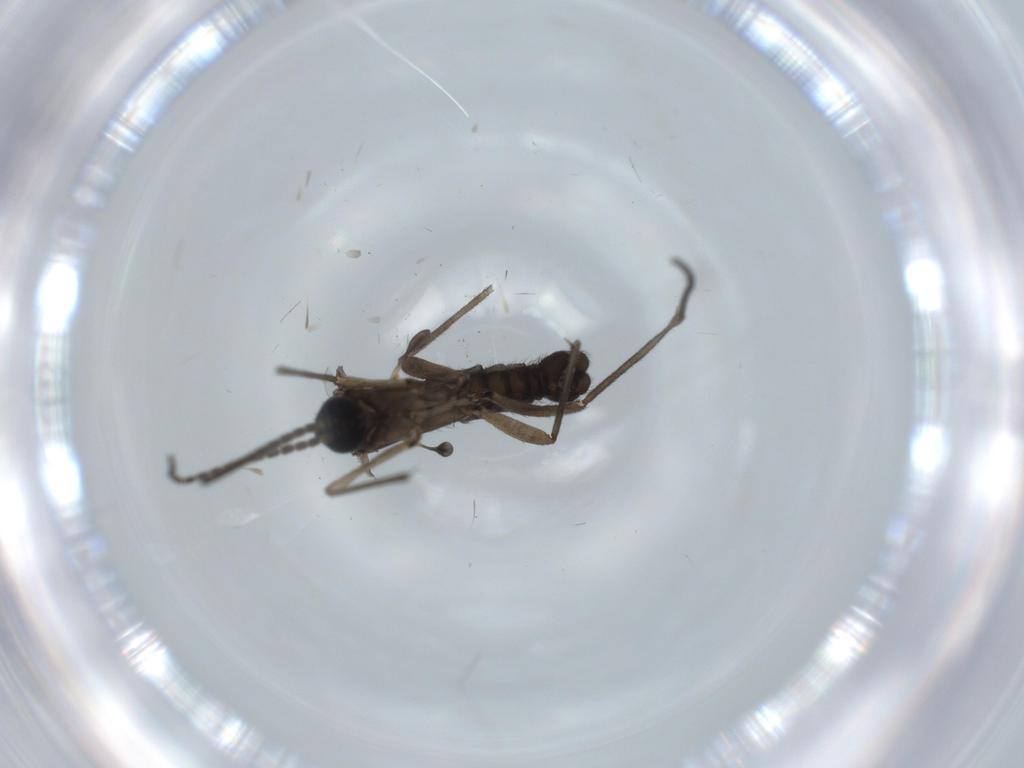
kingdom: Animalia
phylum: Arthropoda
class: Insecta
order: Diptera
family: Sciaridae
